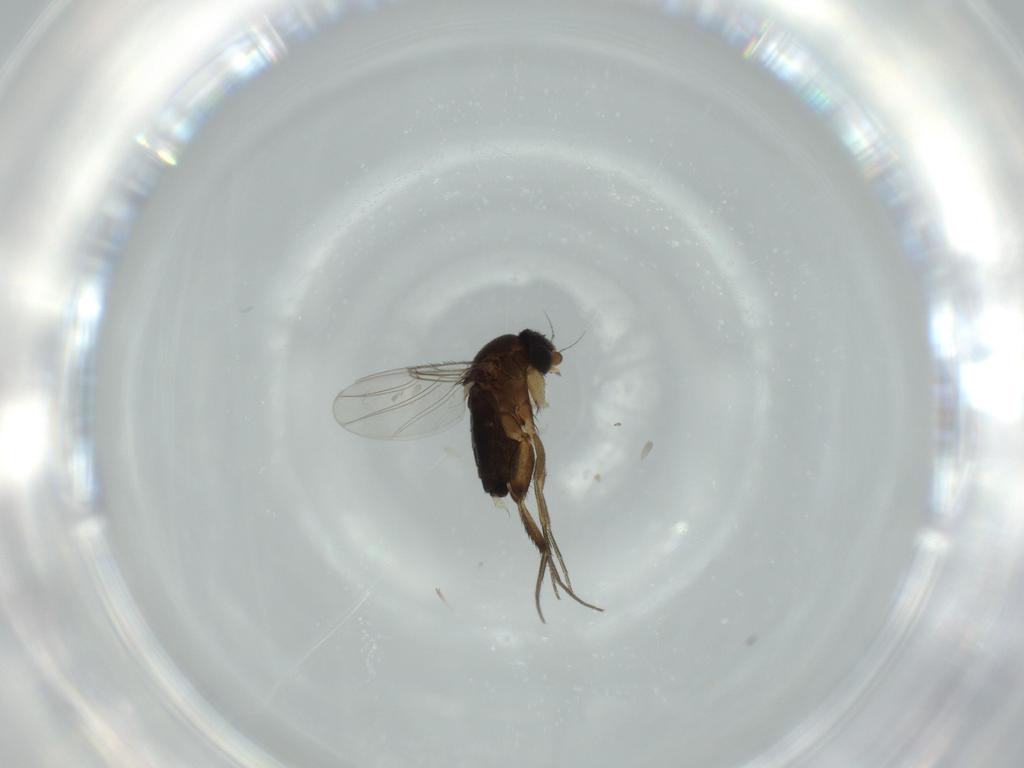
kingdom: Animalia
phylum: Arthropoda
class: Insecta
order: Diptera
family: Phoridae
